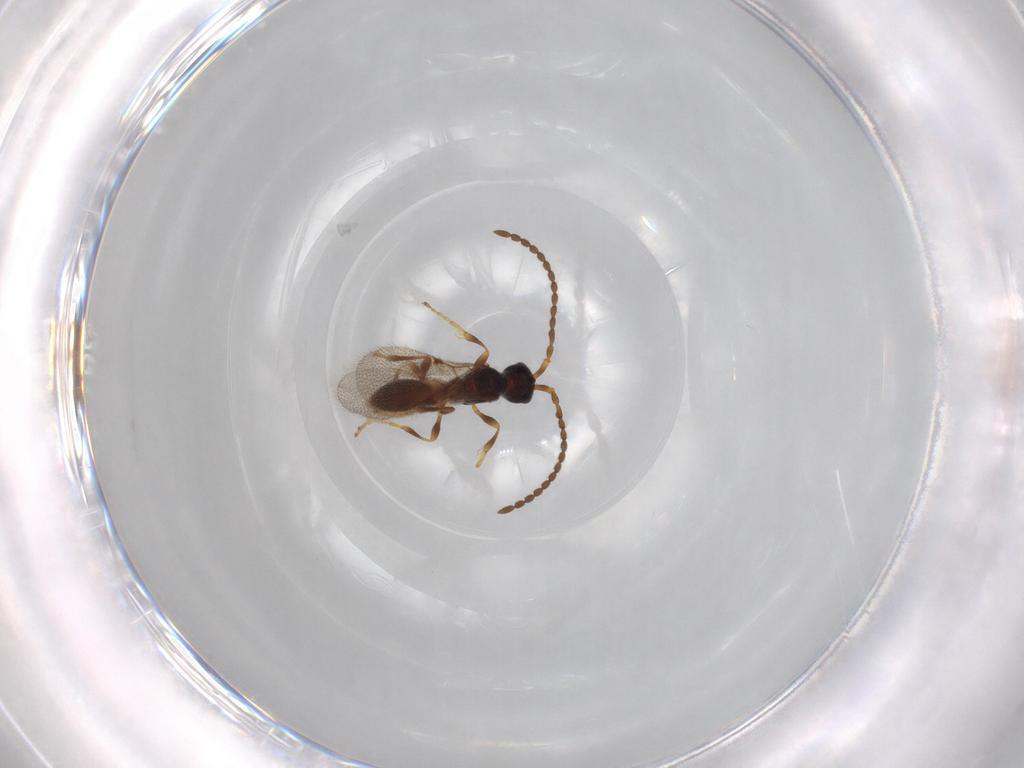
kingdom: Animalia
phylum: Arthropoda
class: Insecta
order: Hymenoptera
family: Diapriidae
